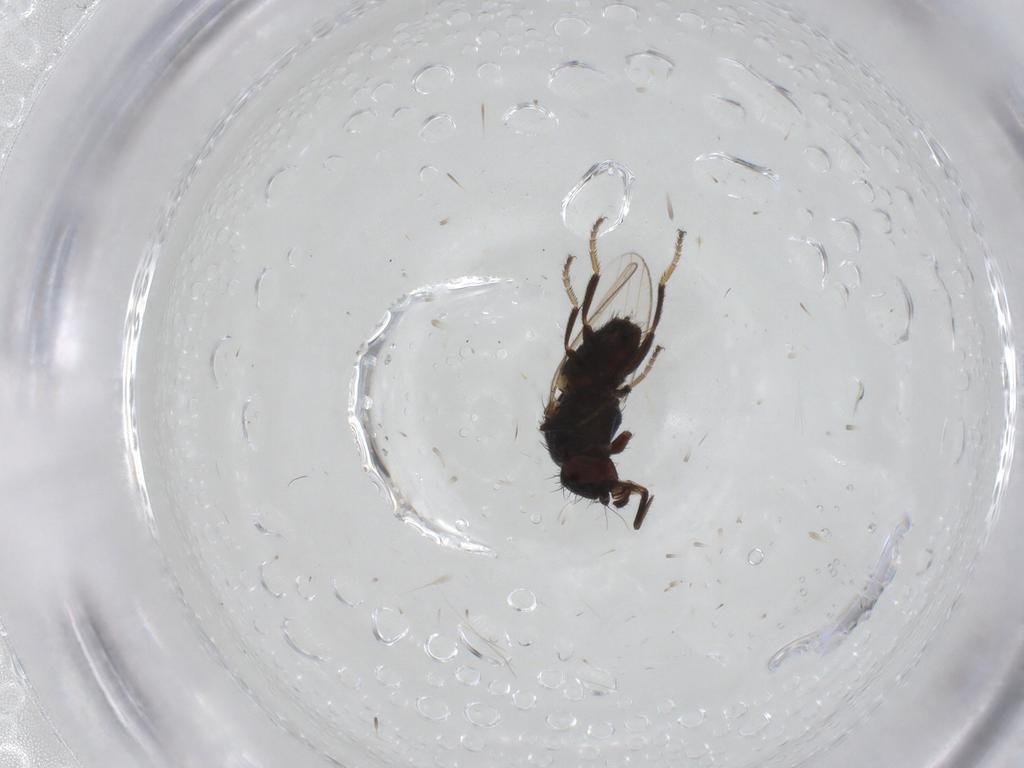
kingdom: Animalia
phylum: Arthropoda
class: Insecta
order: Diptera
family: Milichiidae
